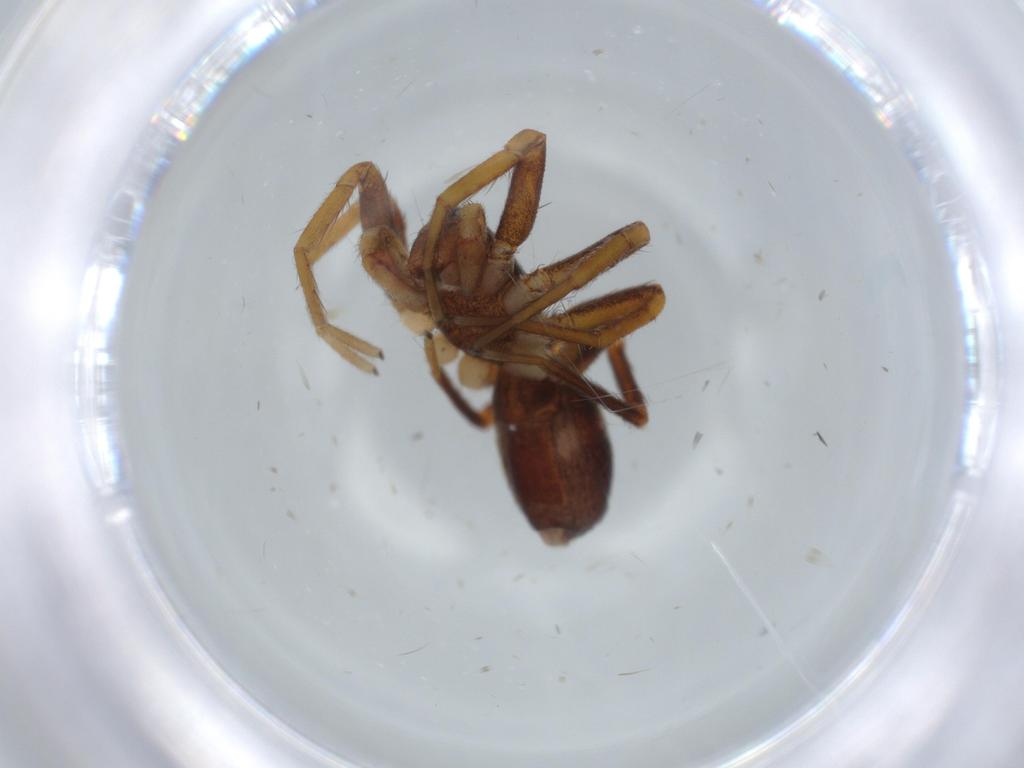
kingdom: Animalia
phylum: Arthropoda
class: Arachnida
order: Araneae
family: Corinnidae
